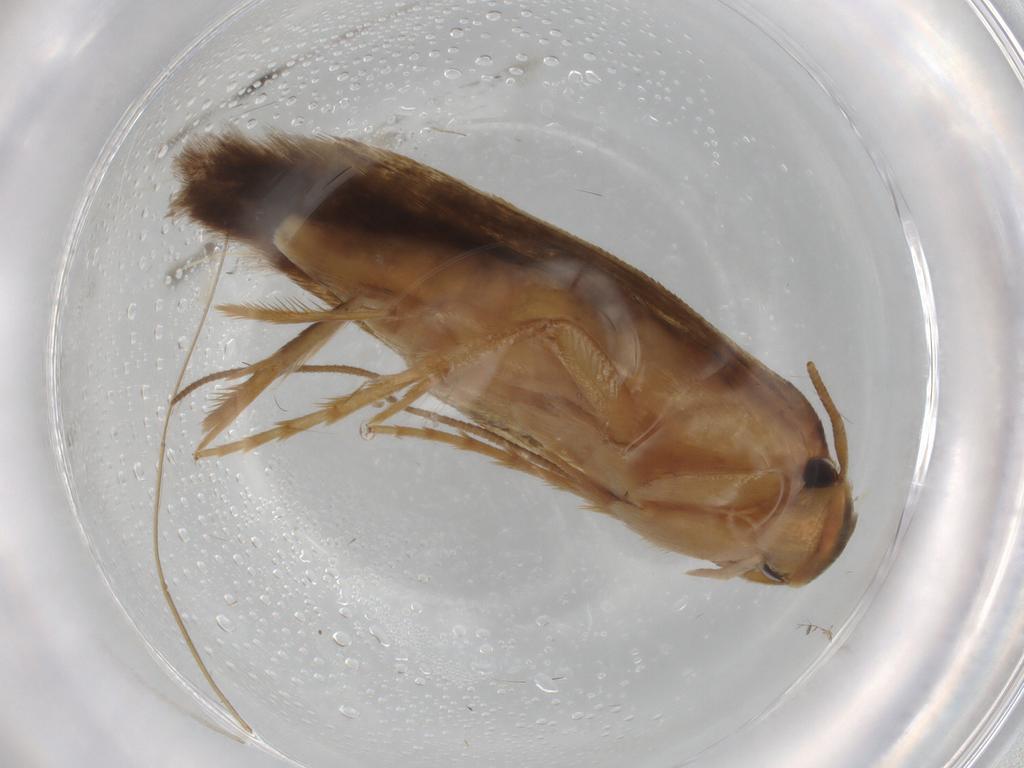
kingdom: Animalia
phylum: Arthropoda
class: Insecta
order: Lepidoptera
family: Tineidae
